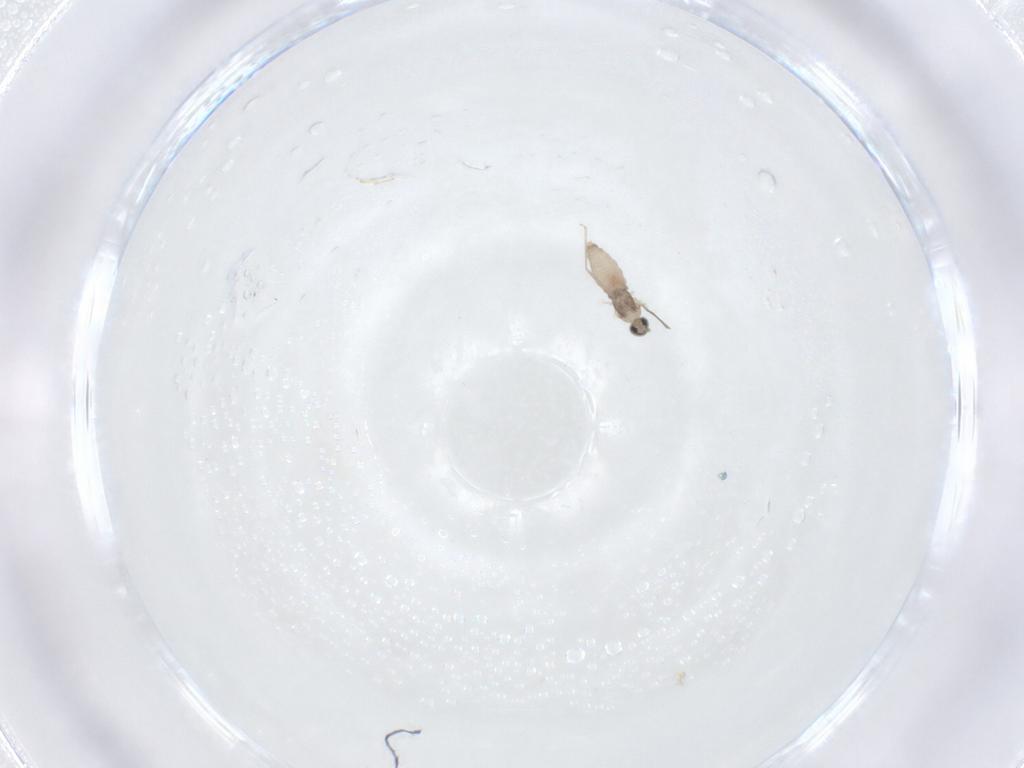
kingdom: Animalia
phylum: Arthropoda
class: Insecta
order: Diptera
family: Cecidomyiidae
